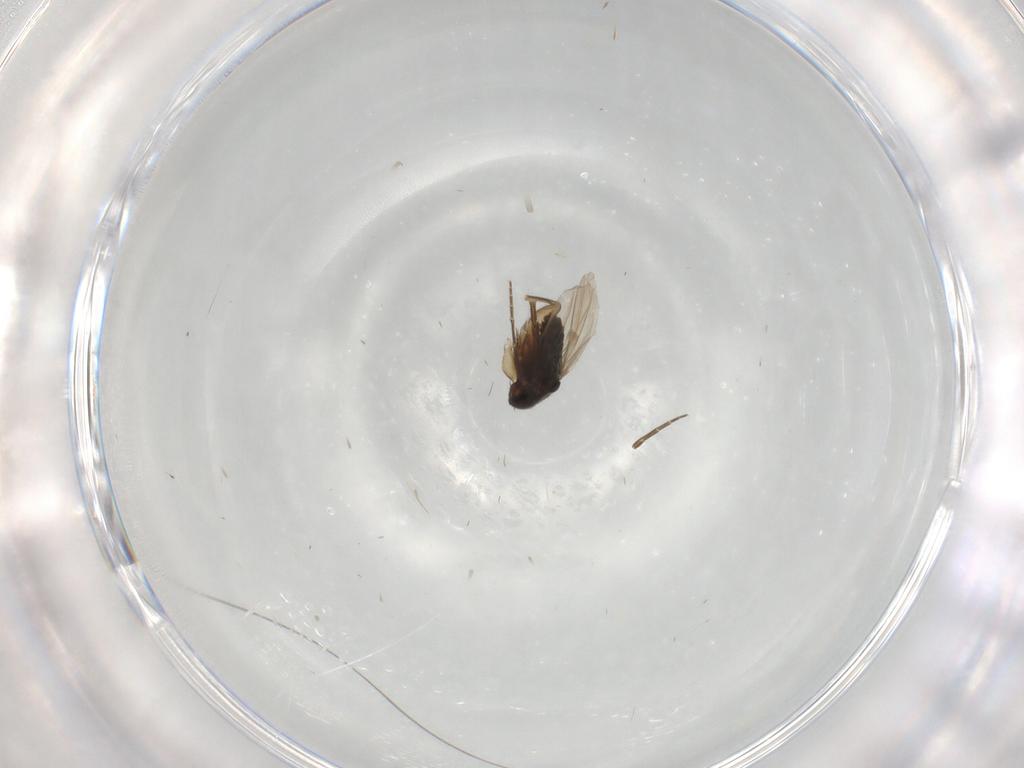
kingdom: Animalia
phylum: Arthropoda
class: Insecta
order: Diptera
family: Muscidae
